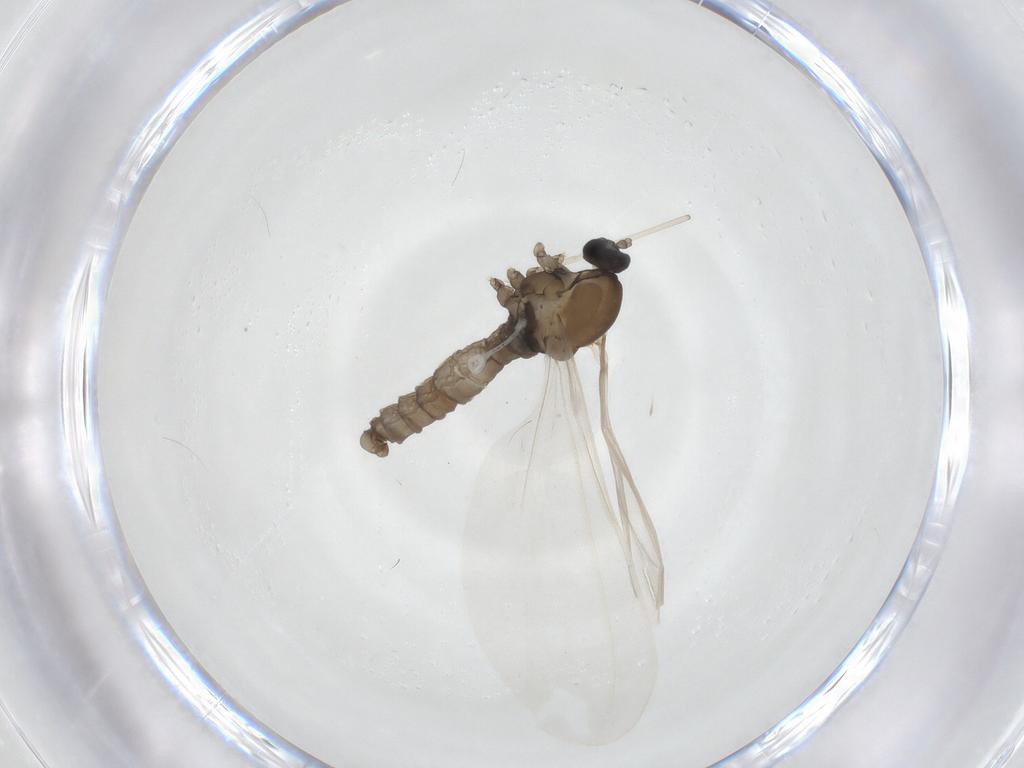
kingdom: Animalia
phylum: Arthropoda
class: Insecta
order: Diptera
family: Cecidomyiidae
